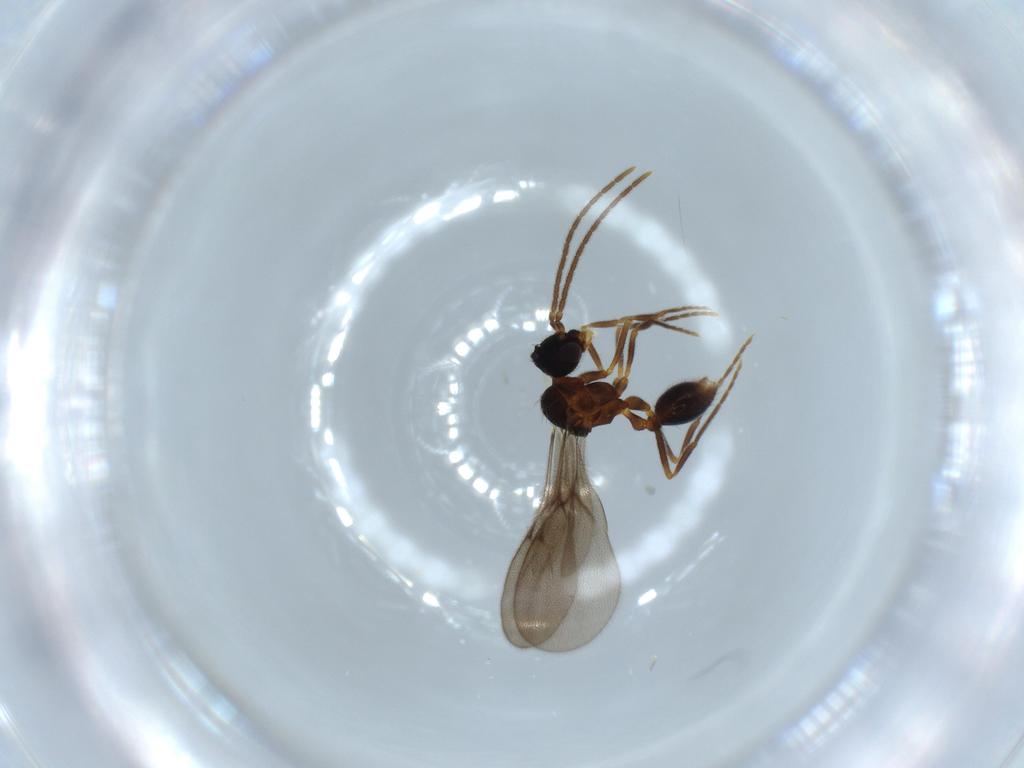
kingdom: Animalia
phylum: Arthropoda
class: Insecta
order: Hymenoptera
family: Formicidae
